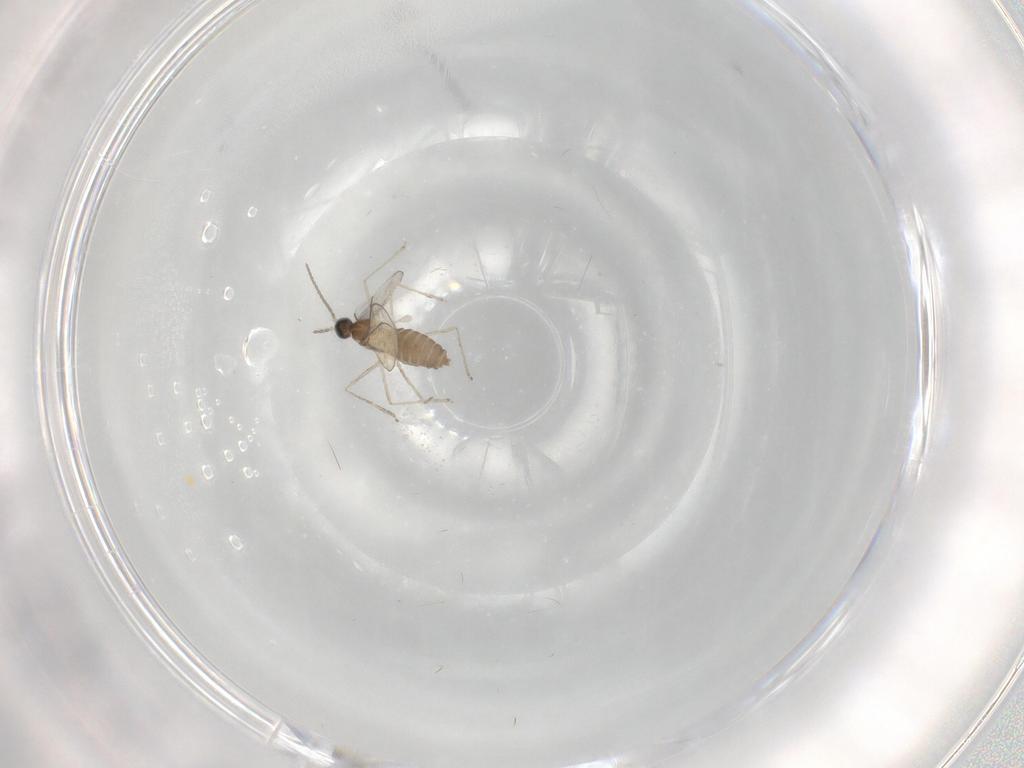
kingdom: Animalia
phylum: Arthropoda
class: Insecta
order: Diptera
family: Cecidomyiidae
